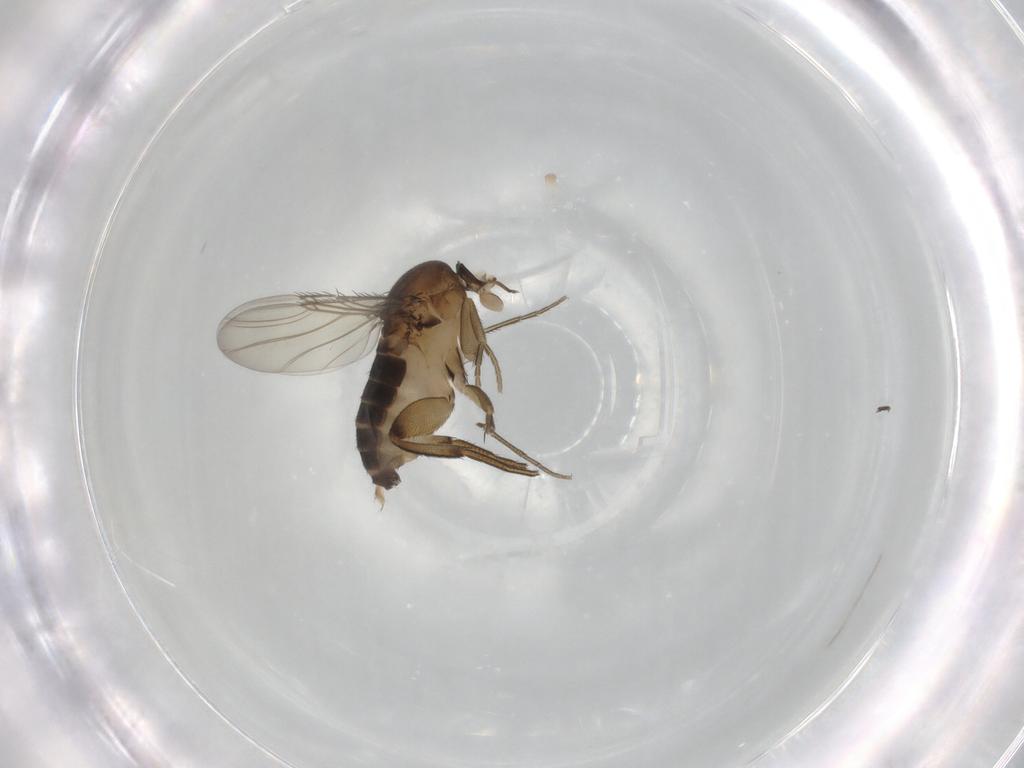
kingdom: Animalia
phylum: Arthropoda
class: Insecta
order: Diptera
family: Phoridae
